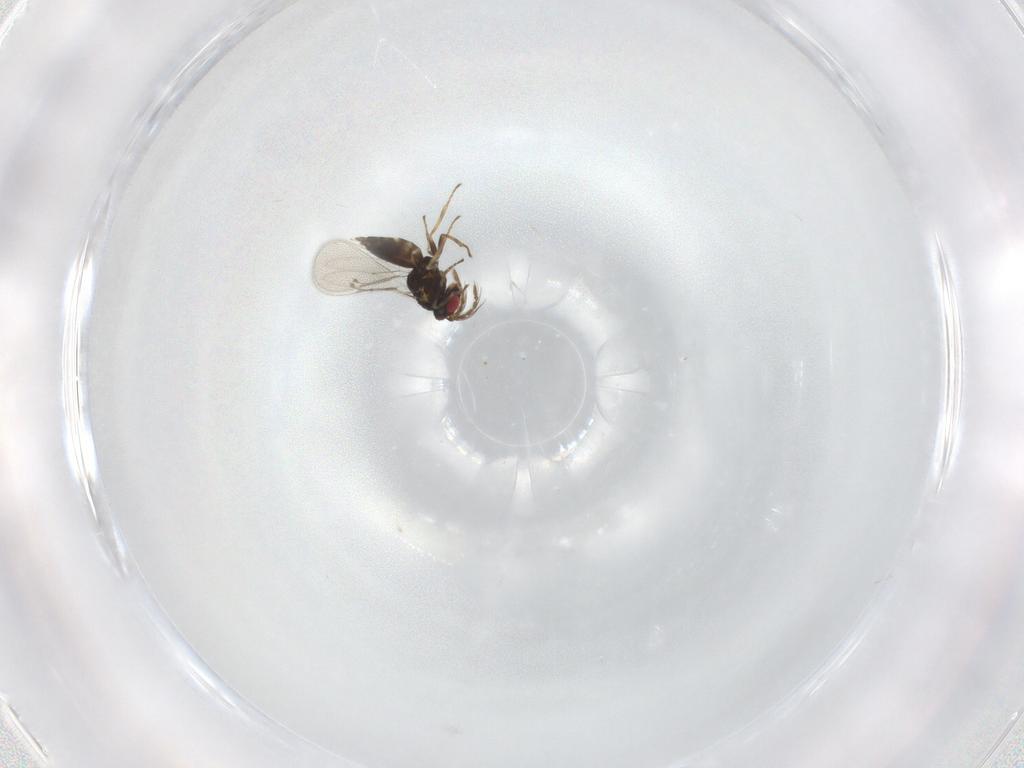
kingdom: Animalia
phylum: Arthropoda
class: Insecta
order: Hymenoptera
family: Eulophidae
